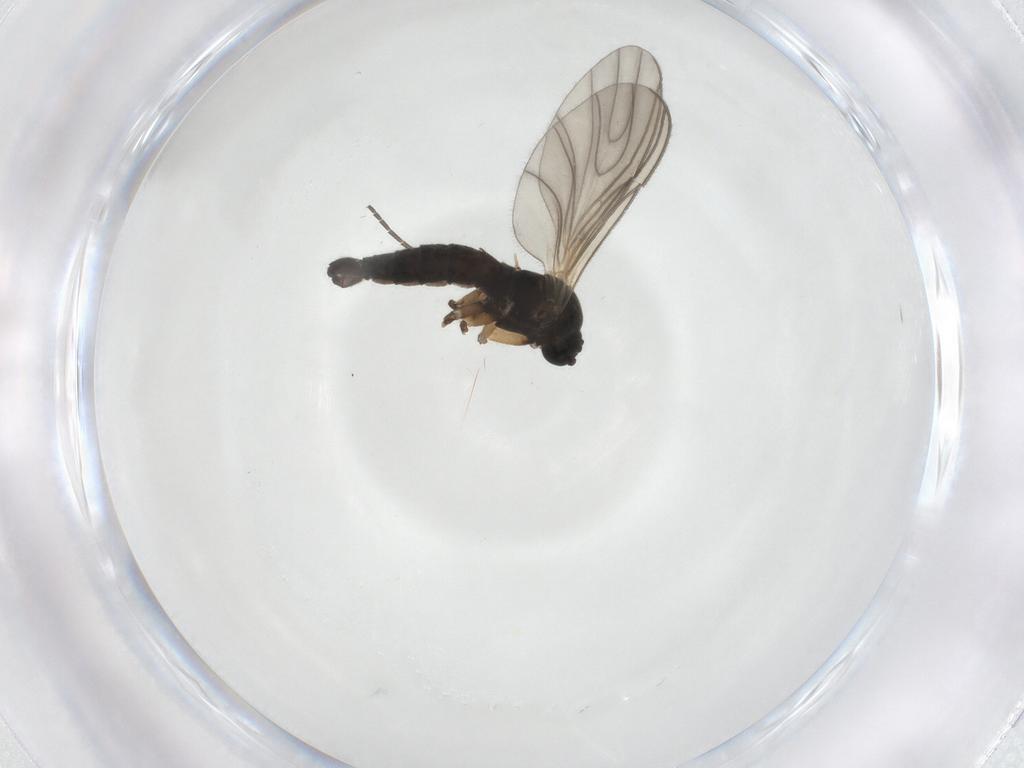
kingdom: Animalia
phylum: Arthropoda
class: Insecta
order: Diptera
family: Sciaridae
